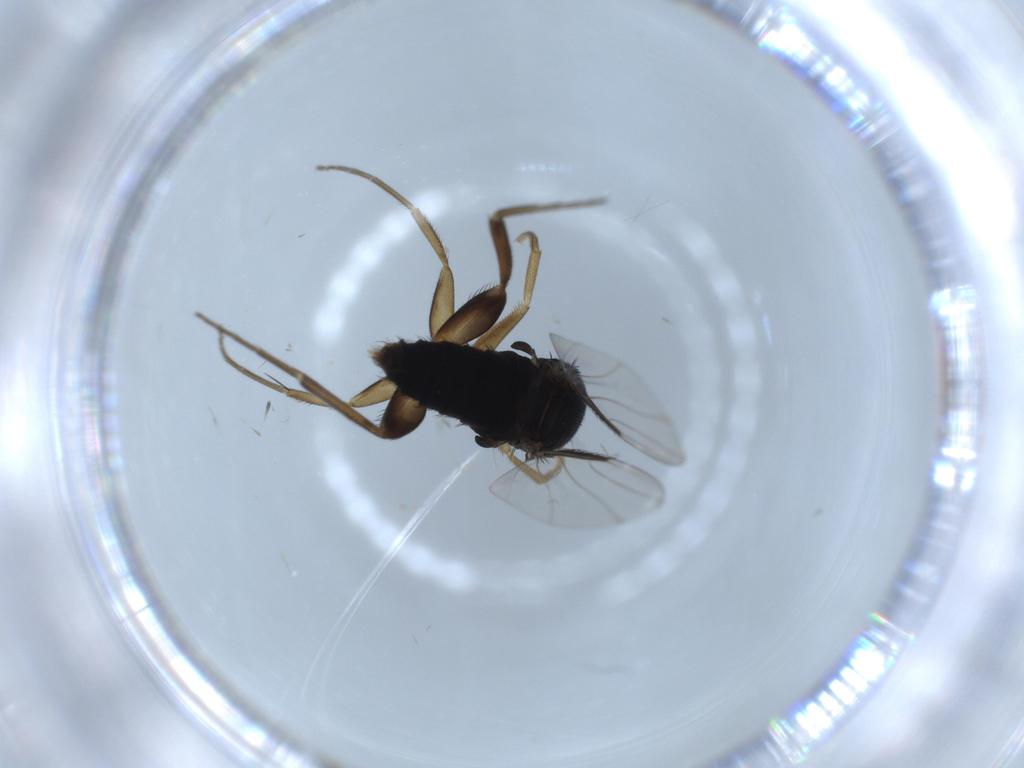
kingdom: Animalia
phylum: Arthropoda
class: Insecta
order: Diptera
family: Phoridae
